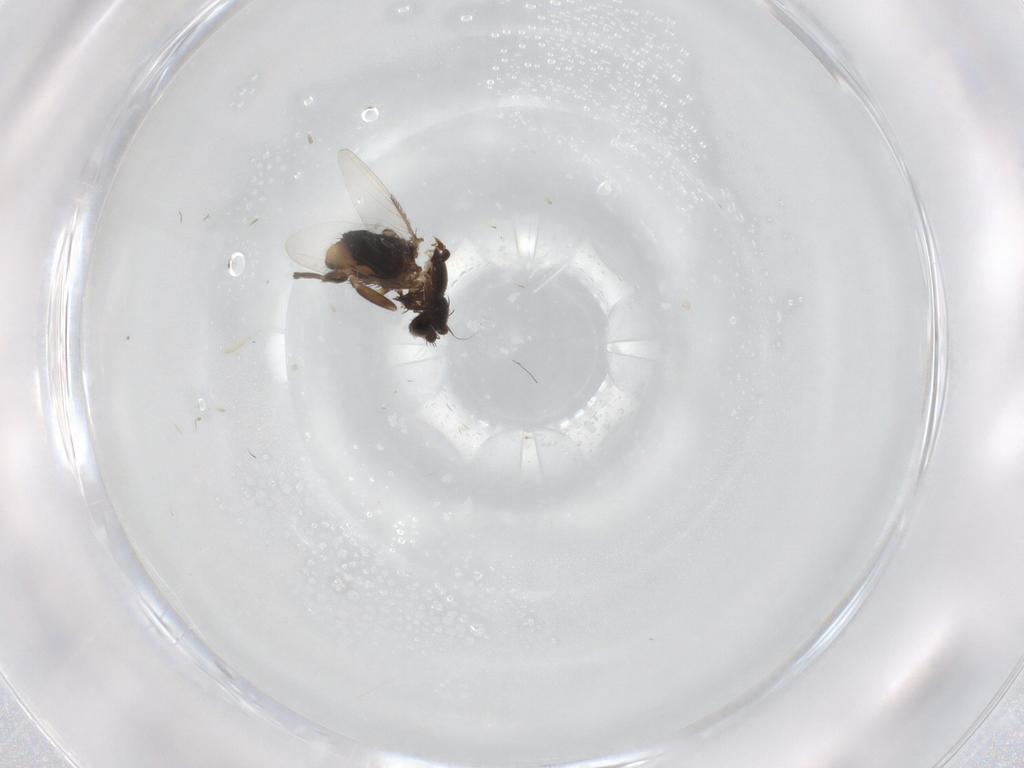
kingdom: Animalia
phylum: Arthropoda
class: Insecta
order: Diptera
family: Phoridae
